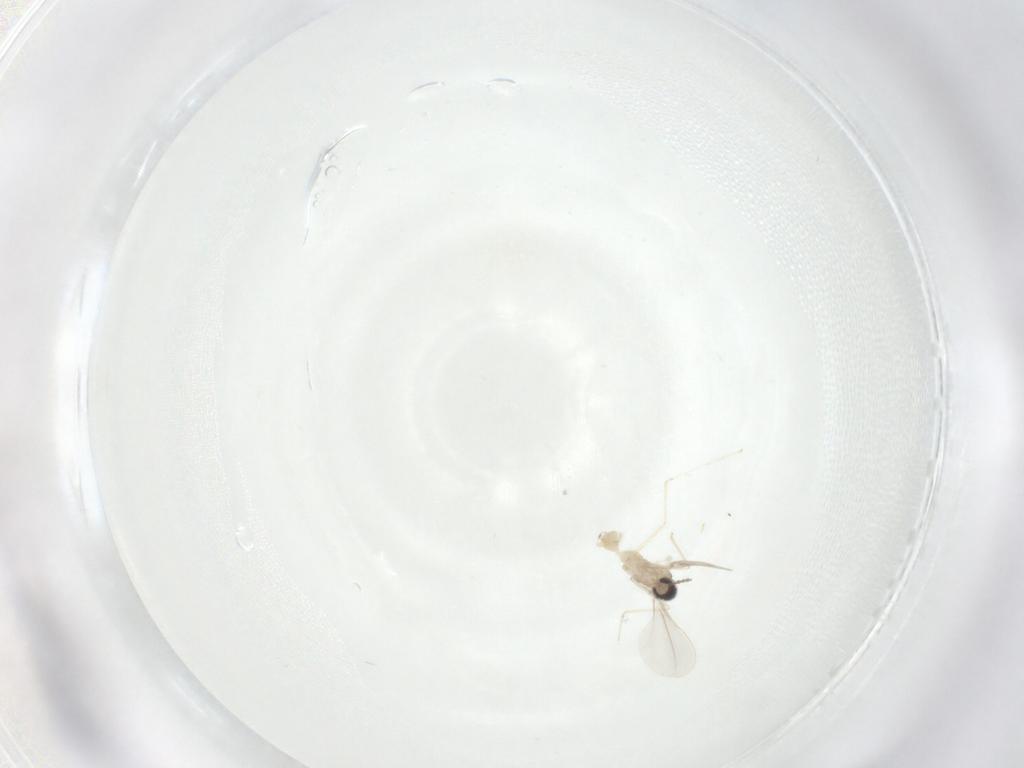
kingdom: Animalia
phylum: Arthropoda
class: Insecta
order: Diptera
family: Cecidomyiidae
